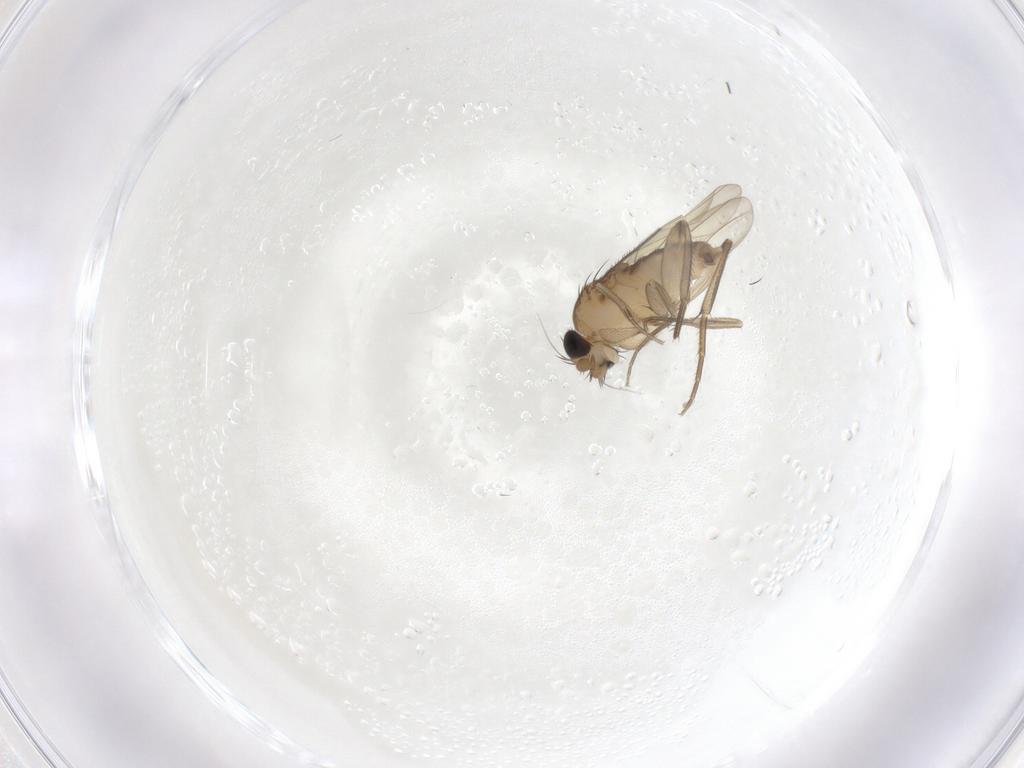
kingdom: Animalia
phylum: Arthropoda
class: Insecta
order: Diptera
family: Phoridae
